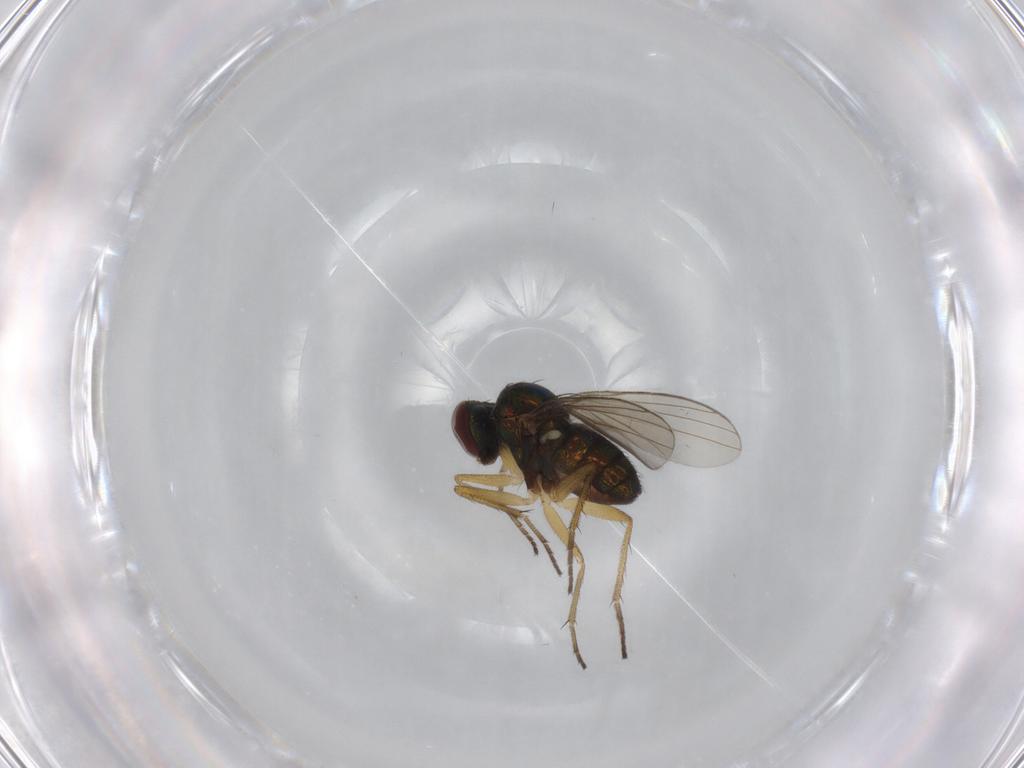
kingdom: Animalia
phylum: Arthropoda
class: Insecta
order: Diptera
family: Dolichopodidae
